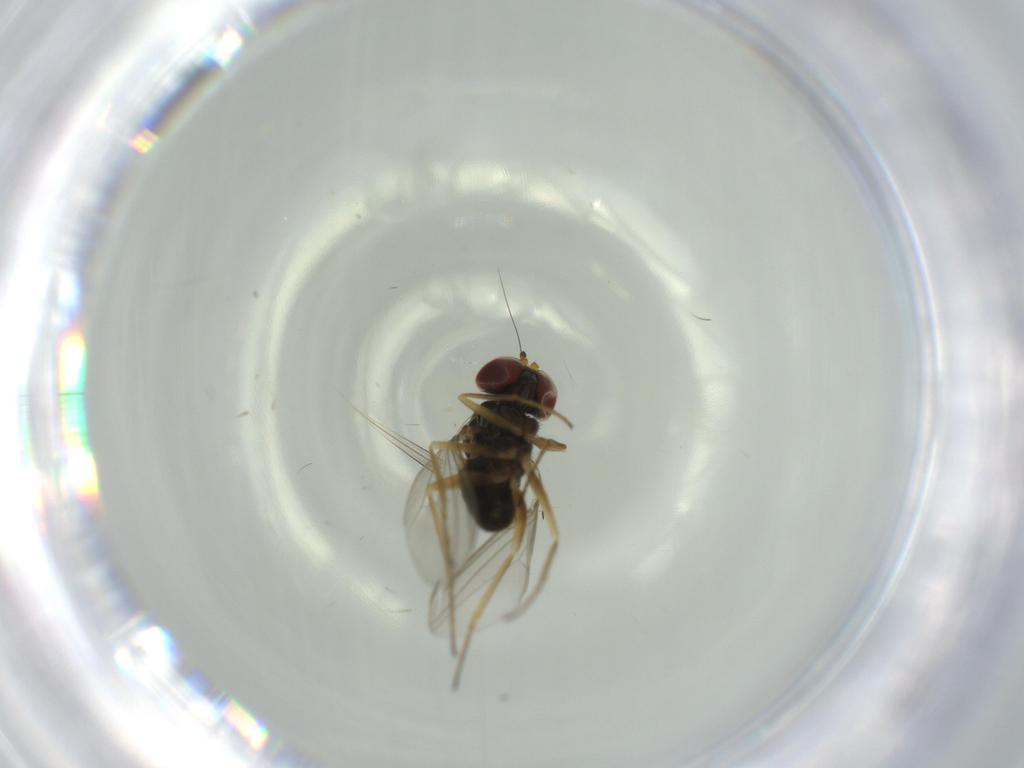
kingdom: Animalia
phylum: Arthropoda
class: Insecta
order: Diptera
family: Dolichopodidae
